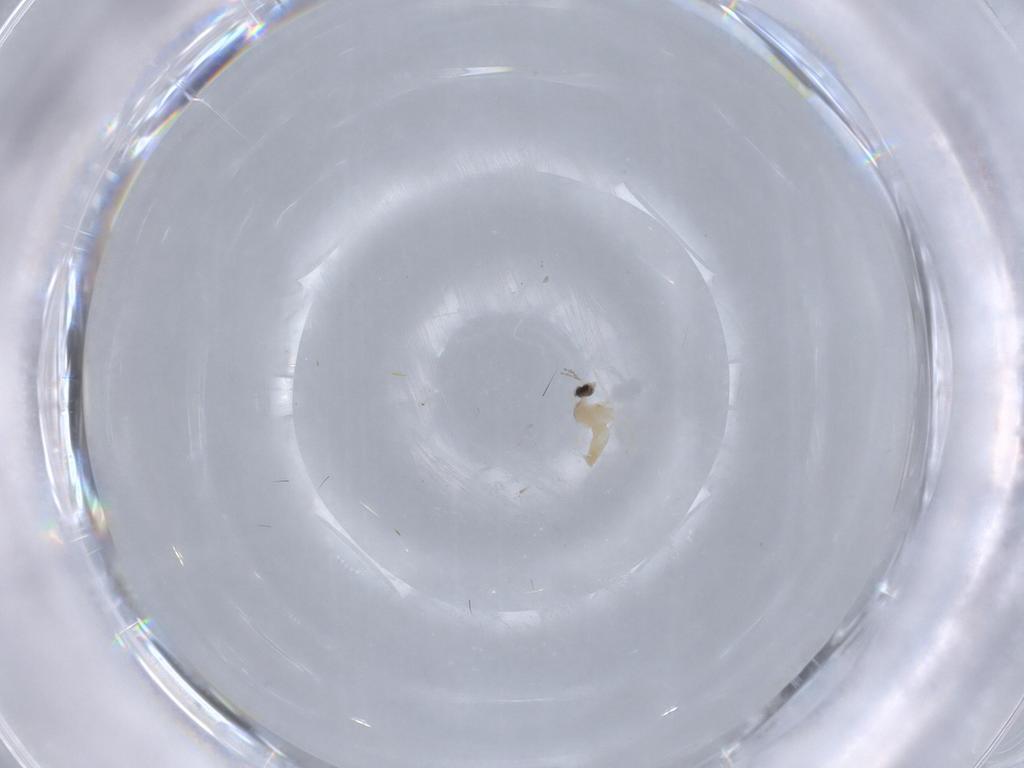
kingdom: Animalia
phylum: Arthropoda
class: Insecta
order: Diptera
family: Cecidomyiidae
